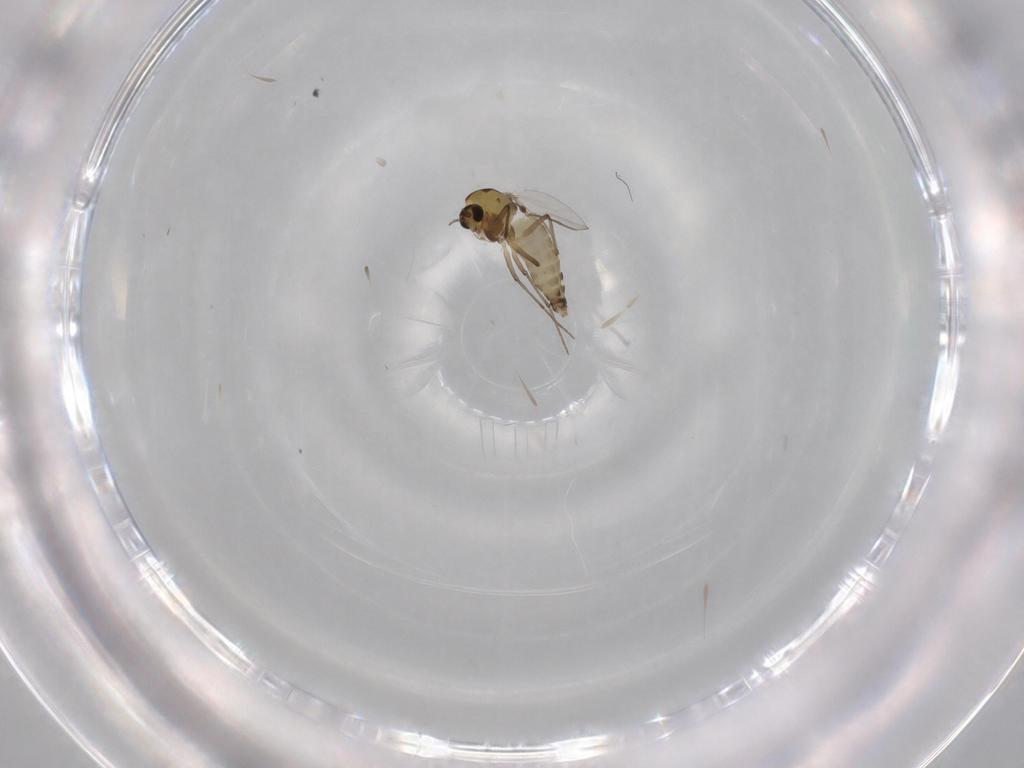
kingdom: Animalia
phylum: Arthropoda
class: Insecta
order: Diptera
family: Chironomidae
